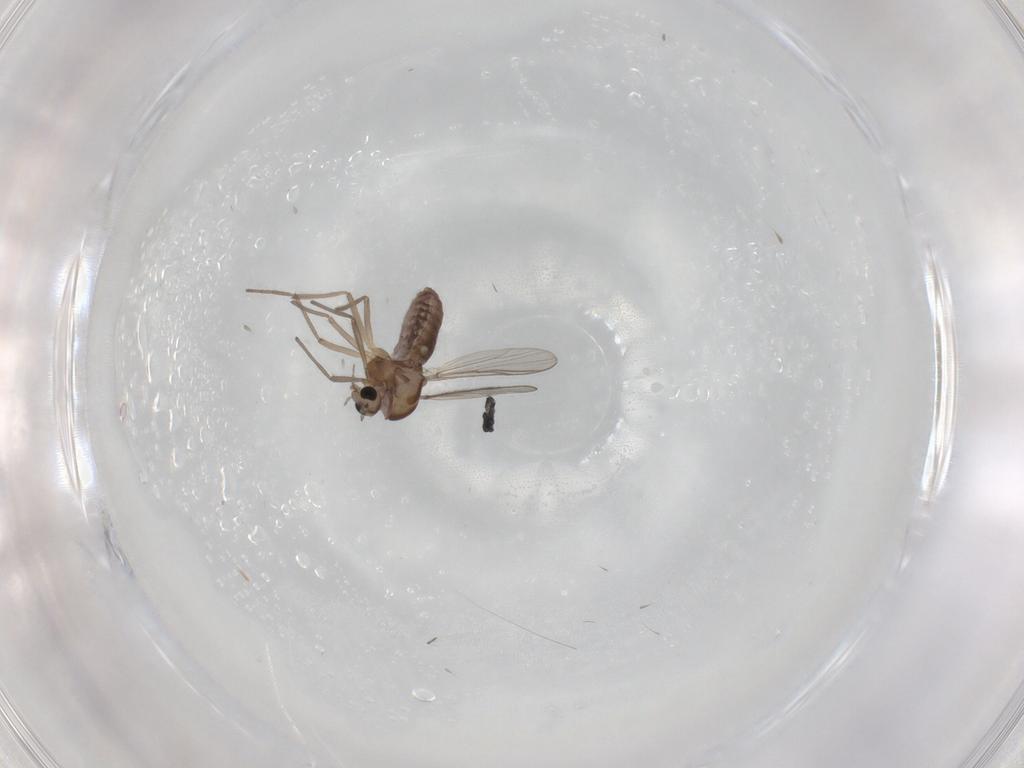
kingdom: Animalia
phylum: Arthropoda
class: Insecta
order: Diptera
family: Chironomidae
